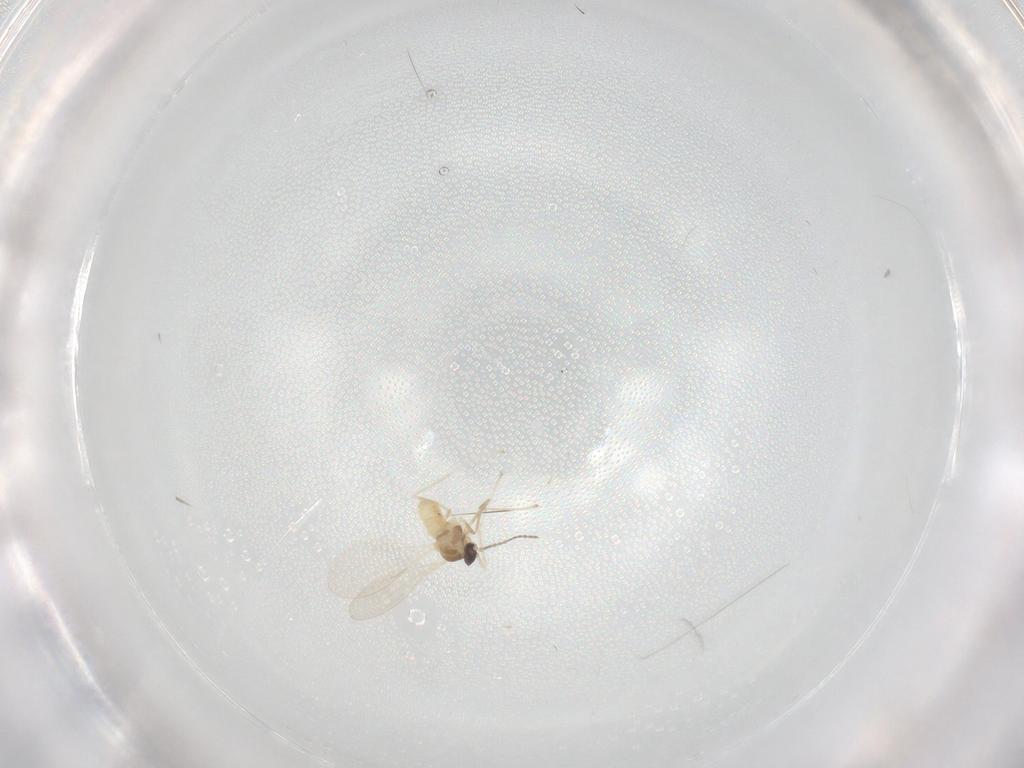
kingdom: Animalia
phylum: Arthropoda
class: Insecta
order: Diptera
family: Cecidomyiidae
